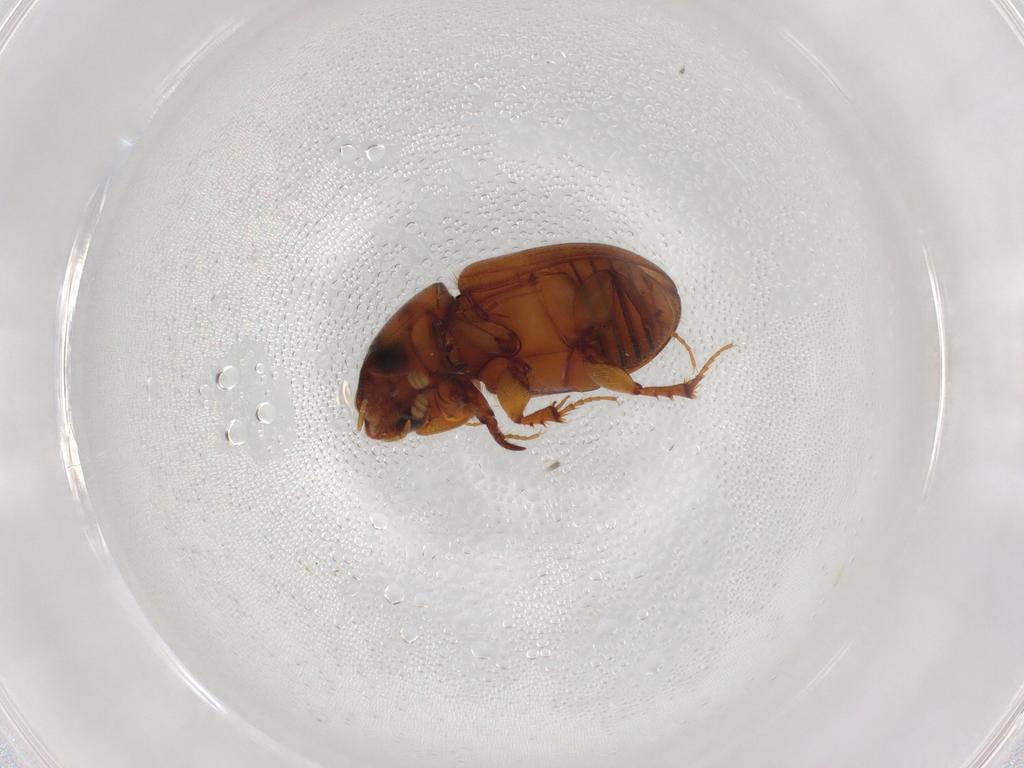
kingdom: Animalia
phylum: Arthropoda
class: Insecta
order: Coleoptera
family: Scarabaeidae
